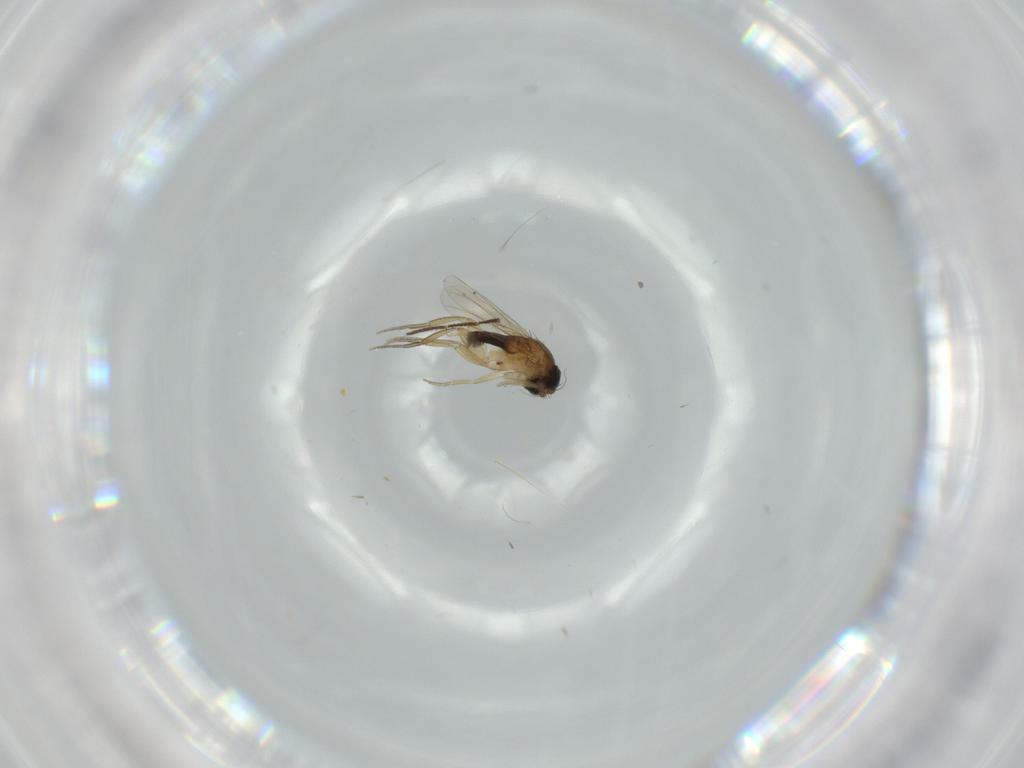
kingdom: Animalia
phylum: Arthropoda
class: Insecta
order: Diptera
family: Phoridae
